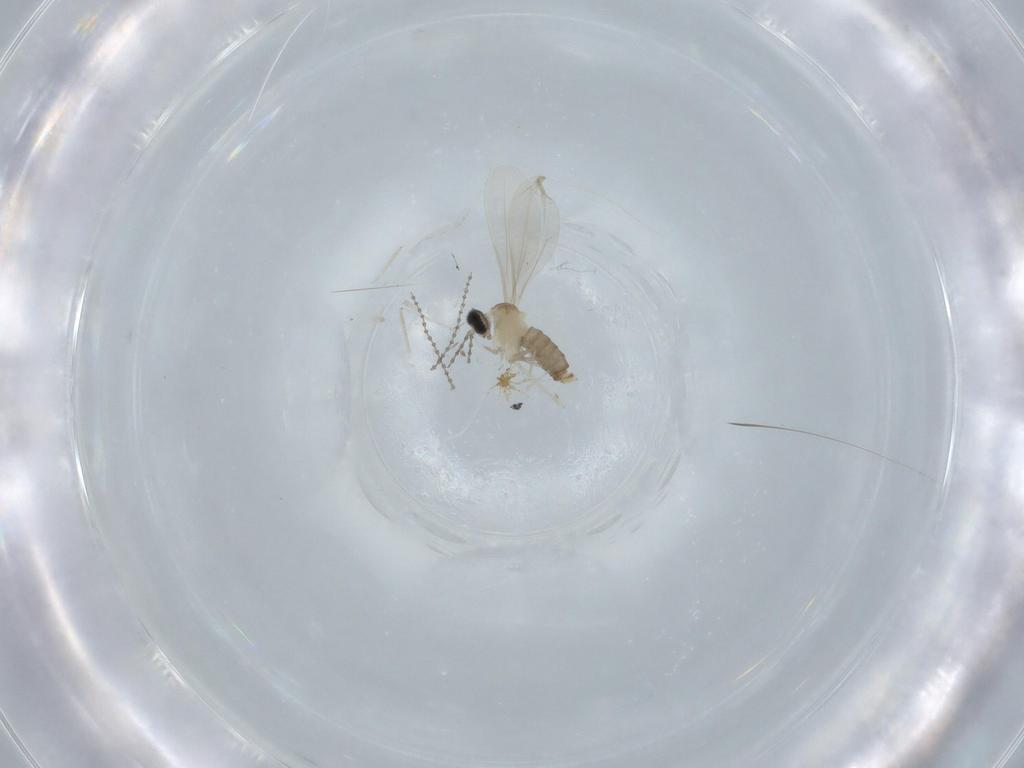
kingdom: Animalia
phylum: Arthropoda
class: Insecta
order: Diptera
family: Cecidomyiidae
